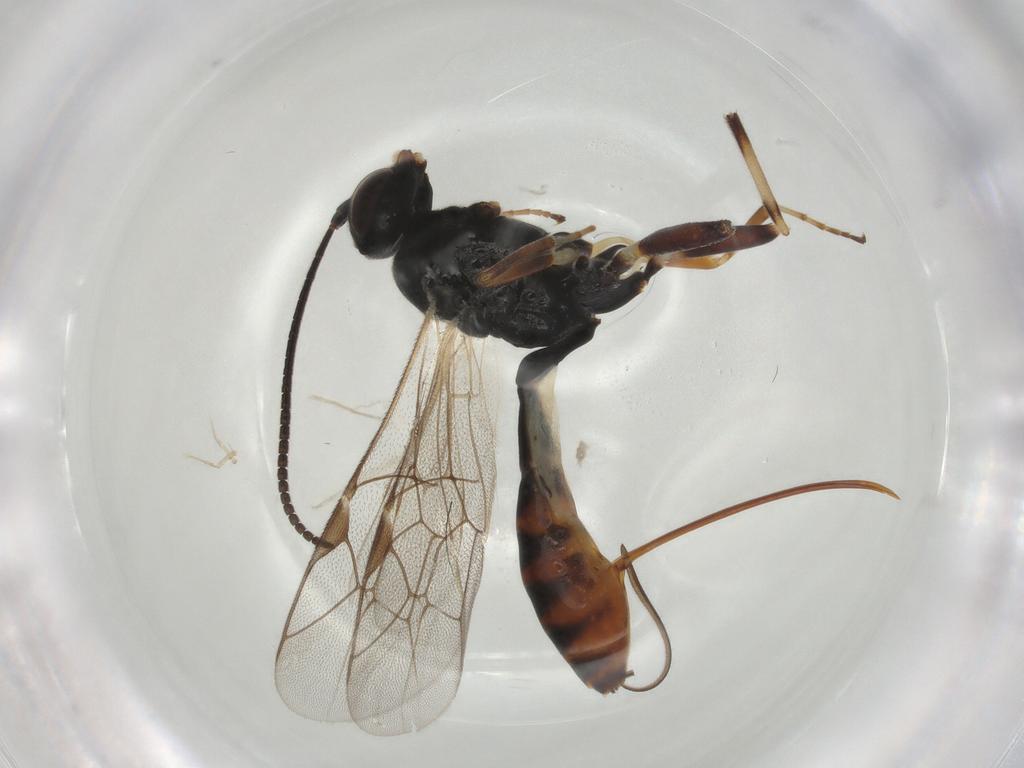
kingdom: Animalia
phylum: Arthropoda
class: Insecta
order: Hymenoptera
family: Ichneumonidae
